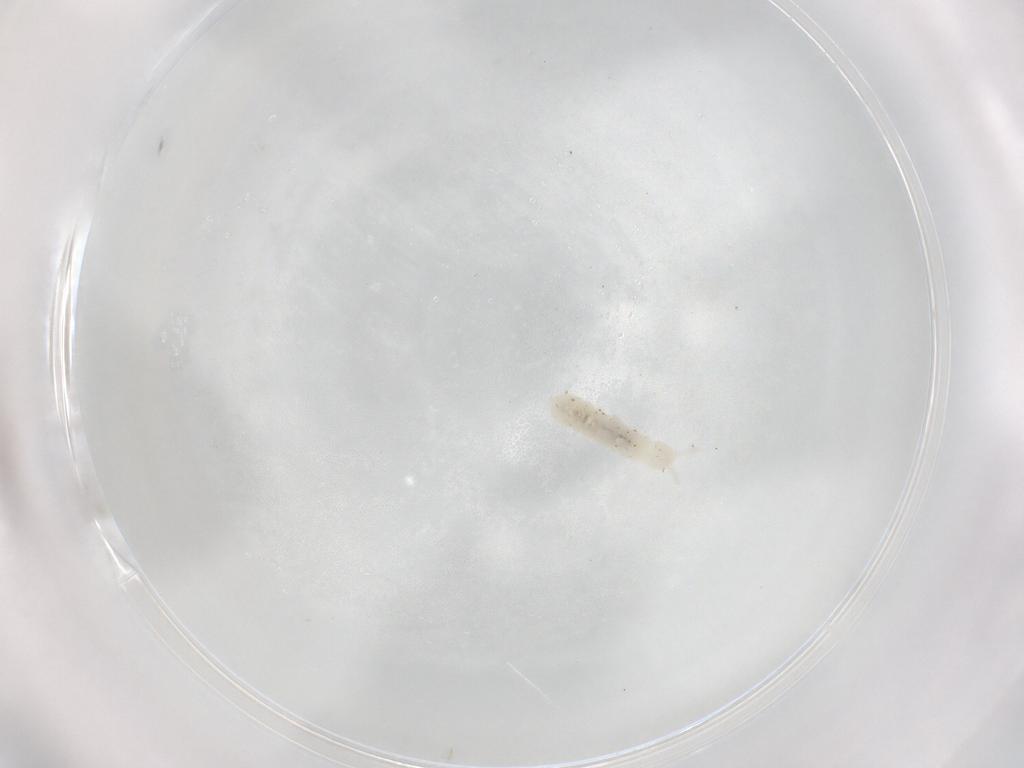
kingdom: Animalia
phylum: Arthropoda
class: Collembola
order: Poduromorpha
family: Onychiuridae
